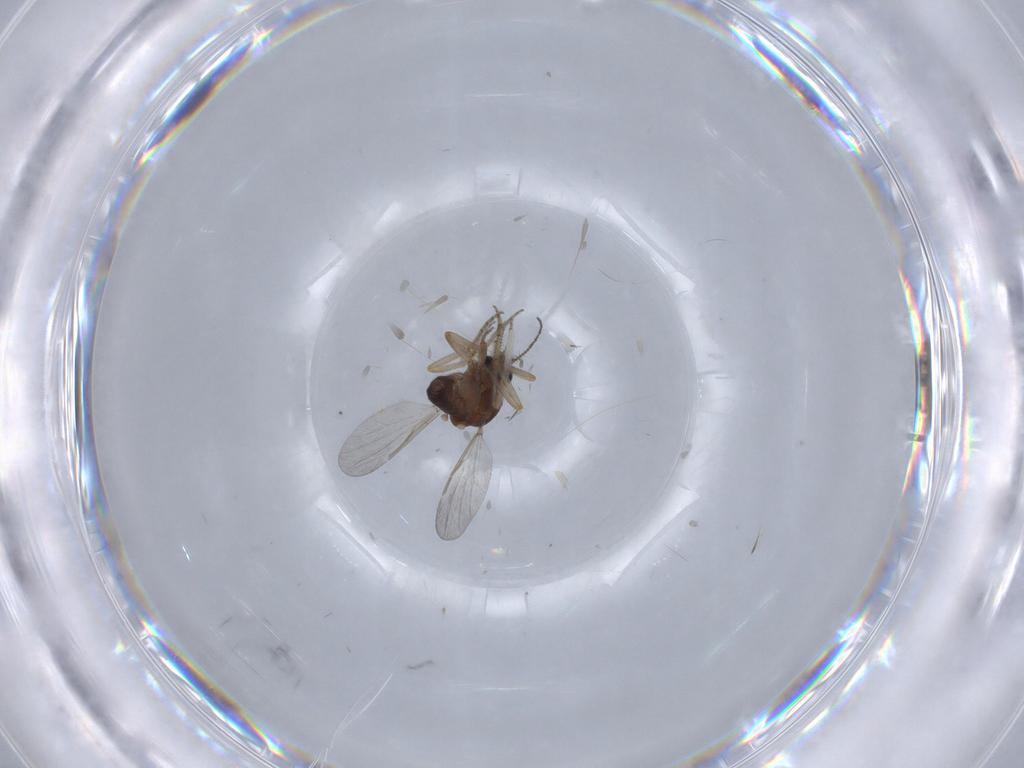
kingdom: Animalia
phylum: Arthropoda
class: Insecta
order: Diptera
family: Chironomidae
